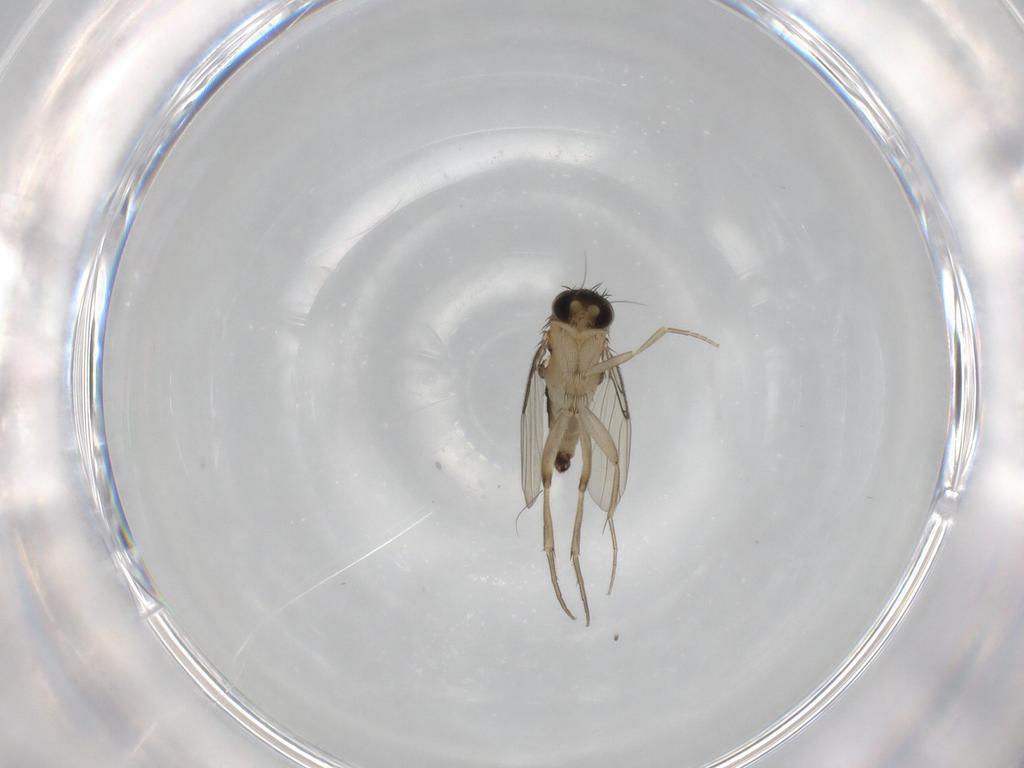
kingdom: Animalia
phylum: Arthropoda
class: Insecta
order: Diptera
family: Phoridae
